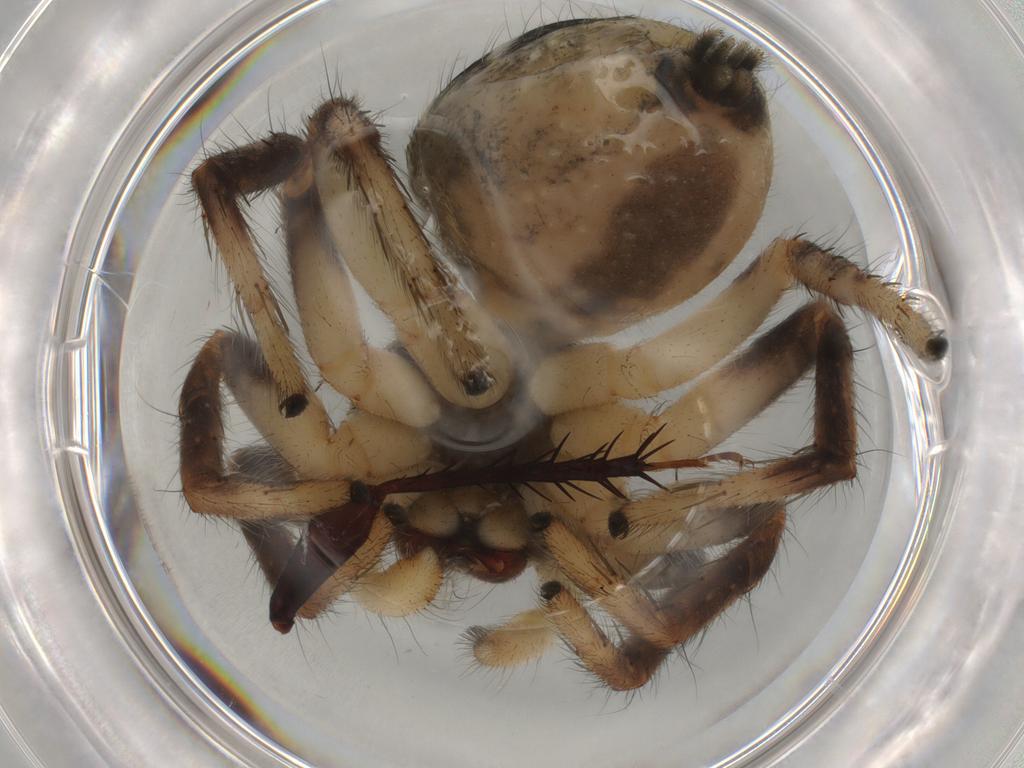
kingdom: Animalia
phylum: Arthropoda
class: Arachnida
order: Araneae
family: Salticidae
